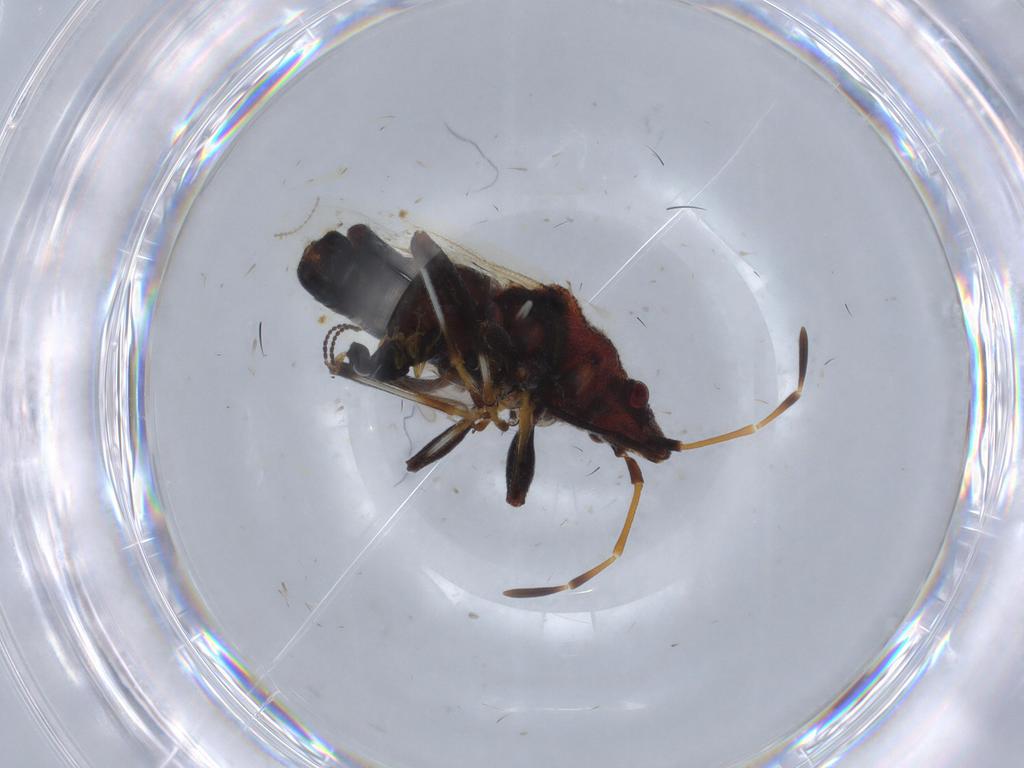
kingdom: Animalia
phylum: Arthropoda
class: Insecta
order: Hemiptera
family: Oxycarenidae
